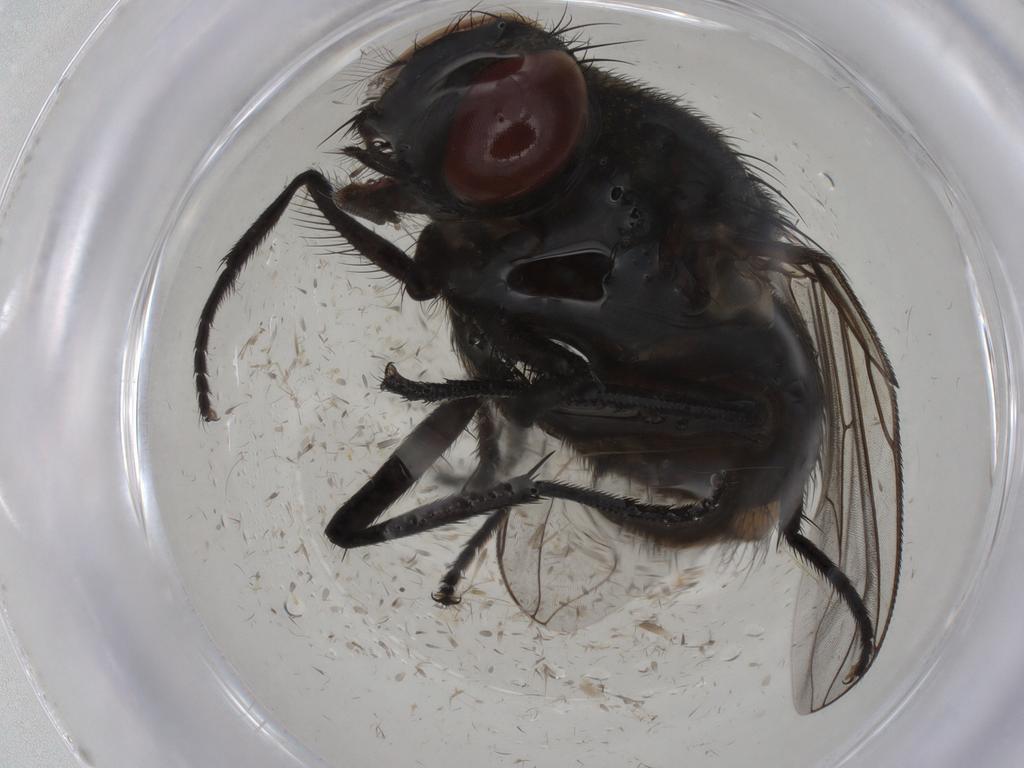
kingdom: Animalia
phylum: Arthropoda
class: Insecta
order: Diptera
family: Muscidae
